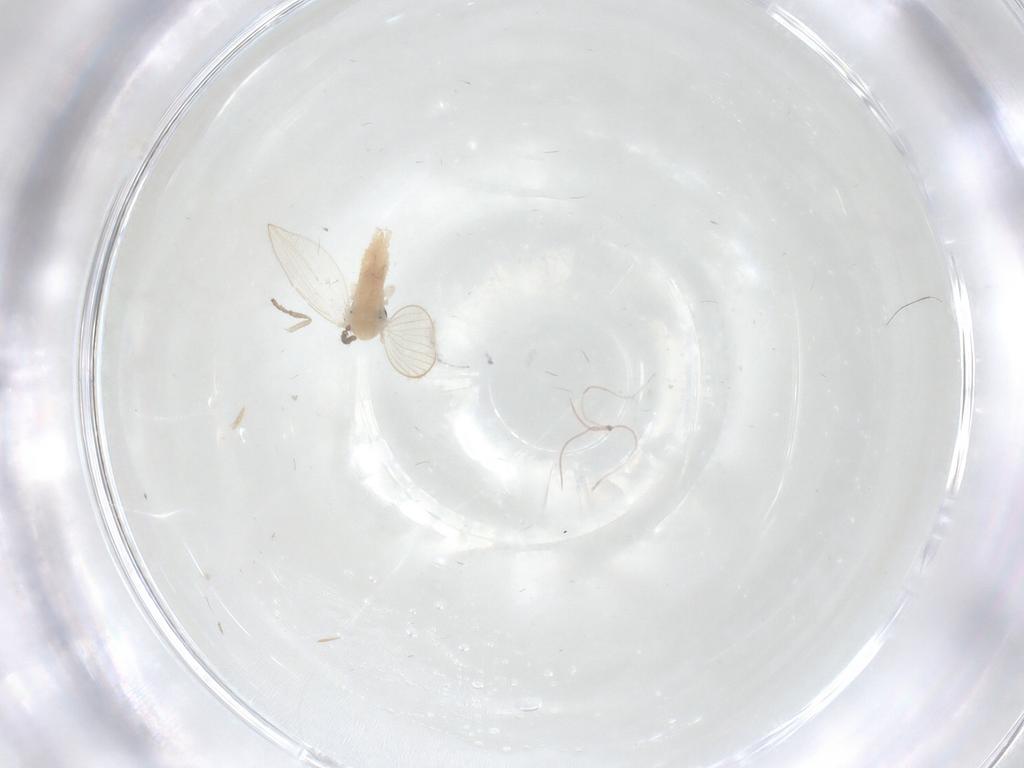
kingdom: Animalia
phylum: Arthropoda
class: Insecta
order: Diptera
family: Psychodidae
